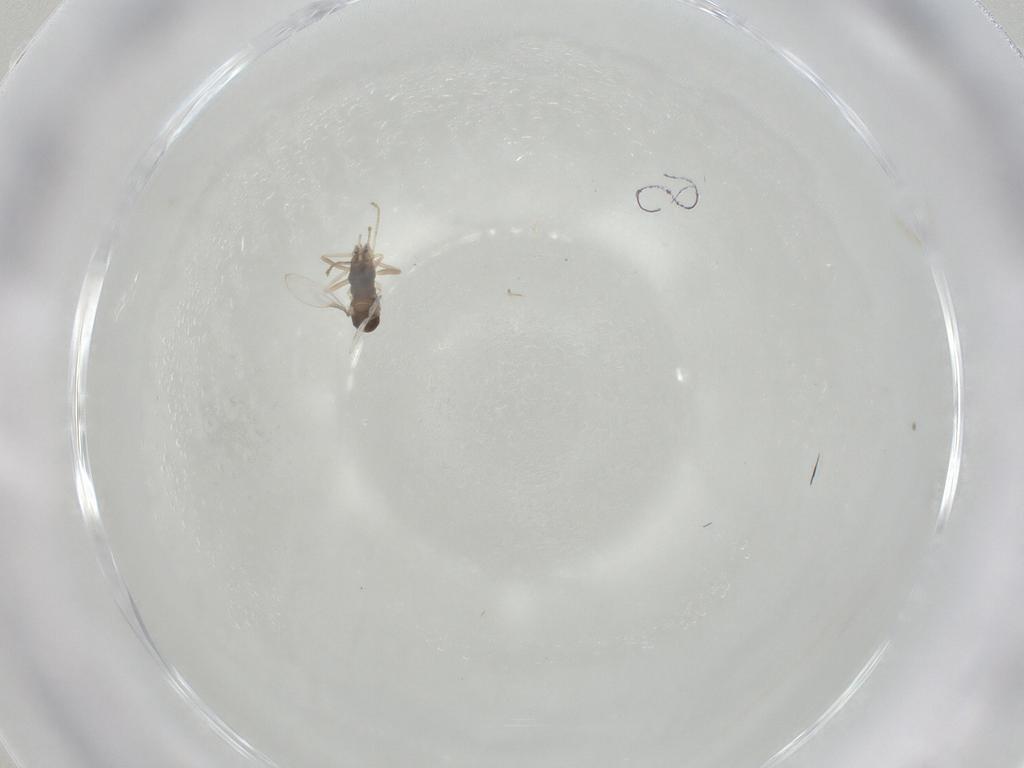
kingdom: Animalia
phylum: Arthropoda
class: Insecta
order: Diptera
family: Cecidomyiidae
